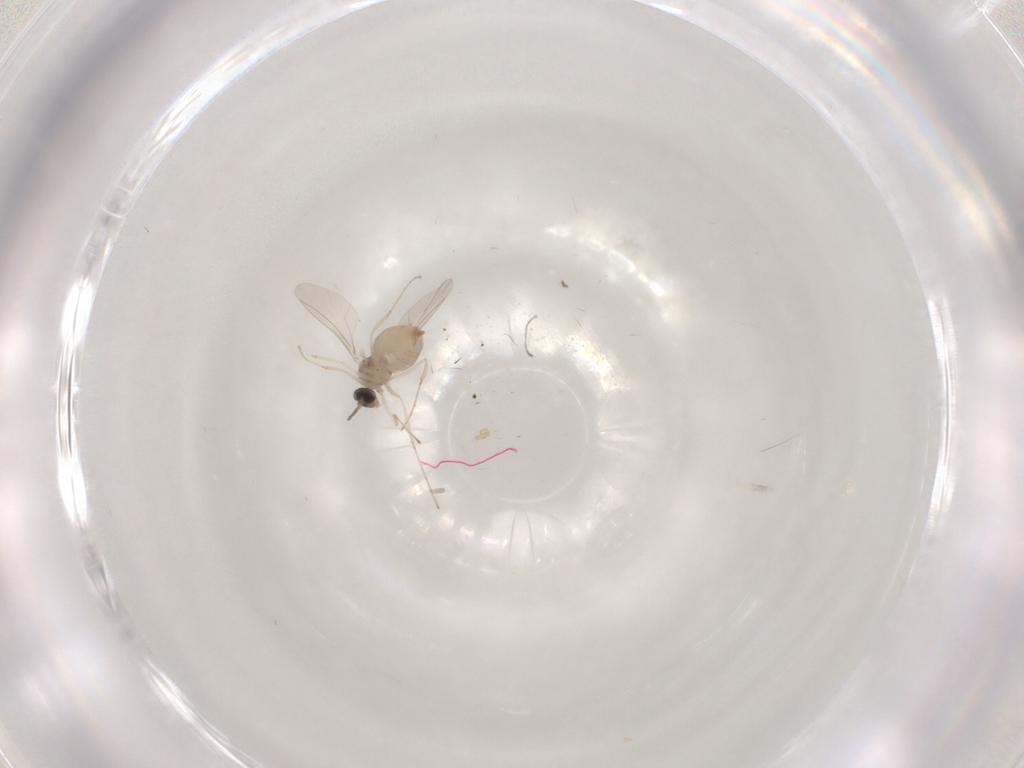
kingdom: Animalia
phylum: Arthropoda
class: Insecta
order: Diptera
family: Cecidomyiidae
